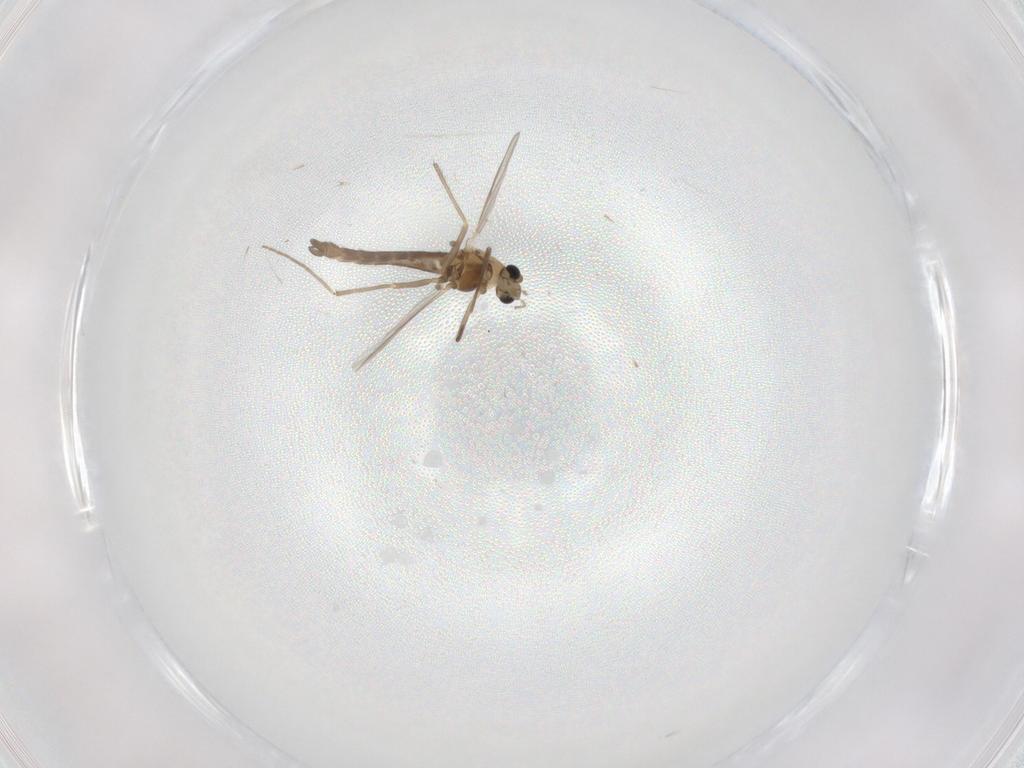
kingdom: Animalia
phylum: Arthropoda
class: Insecta
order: Diptera
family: Chironomidae
